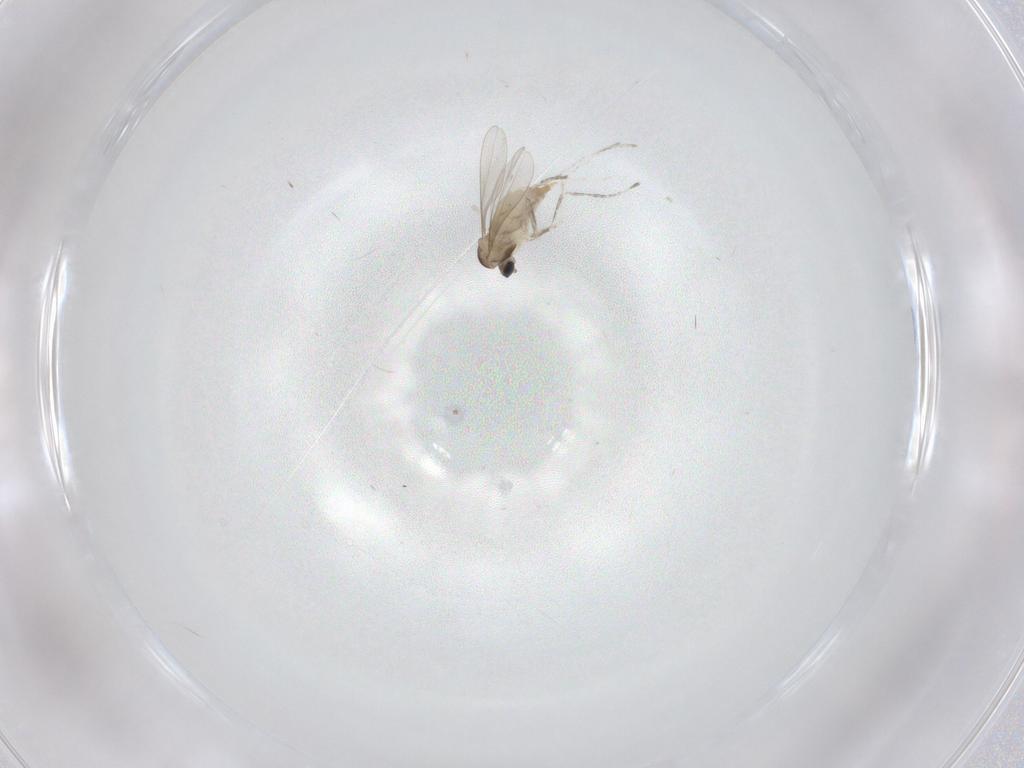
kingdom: Animalia
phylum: Arthropoda
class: Insecta
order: Diptera
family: Cecidomyiidae
